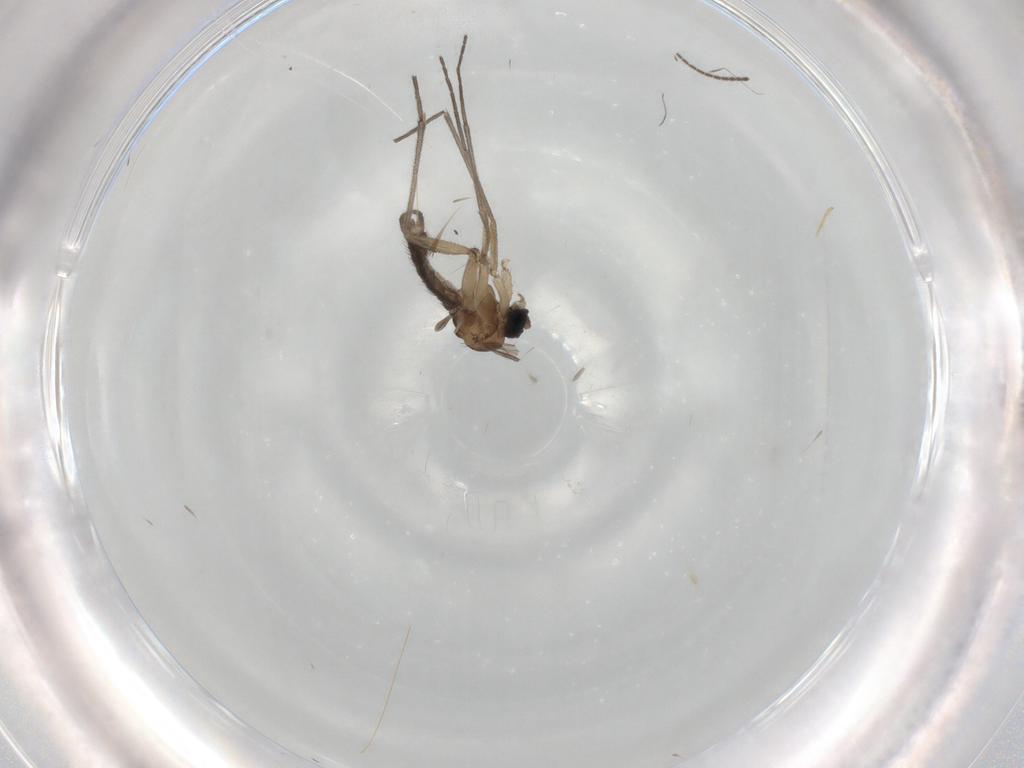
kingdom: Animalia
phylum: Arthropoda
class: Insecta
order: Diptera
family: Sciaridae
